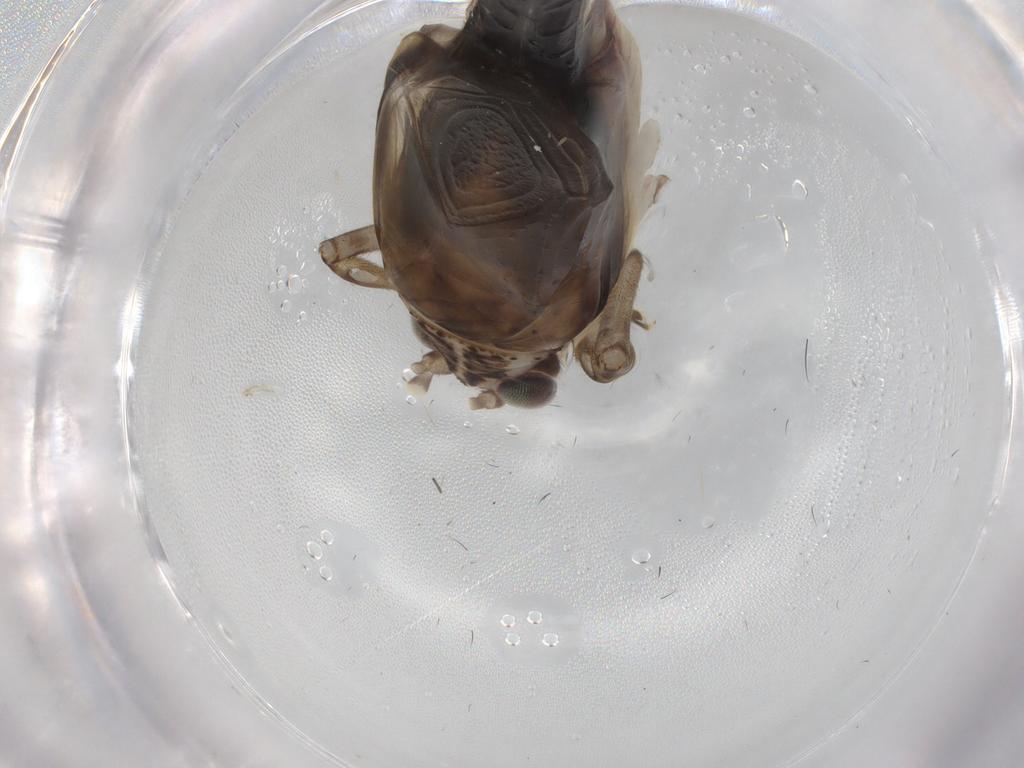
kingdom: Animalia
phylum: Arthropoda
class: Insecta
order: Orthoptera
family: Trigonidiidae
